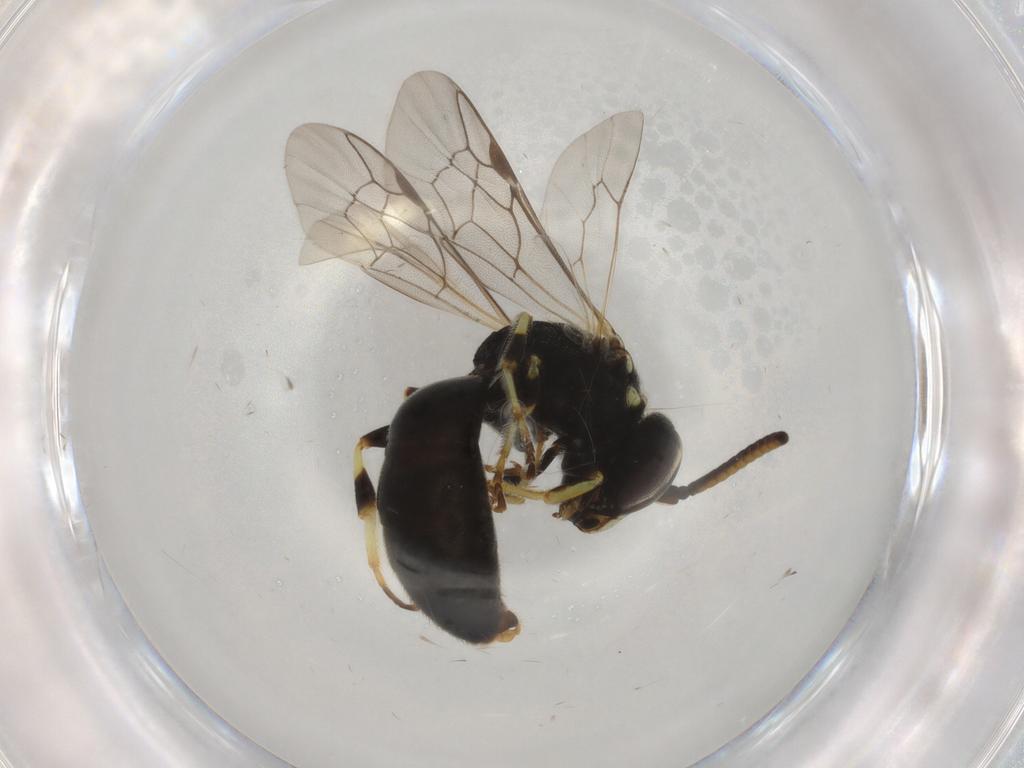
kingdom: Animalia
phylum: Arthropoda
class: Insecta
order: Hymenoptera
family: Colletidae
